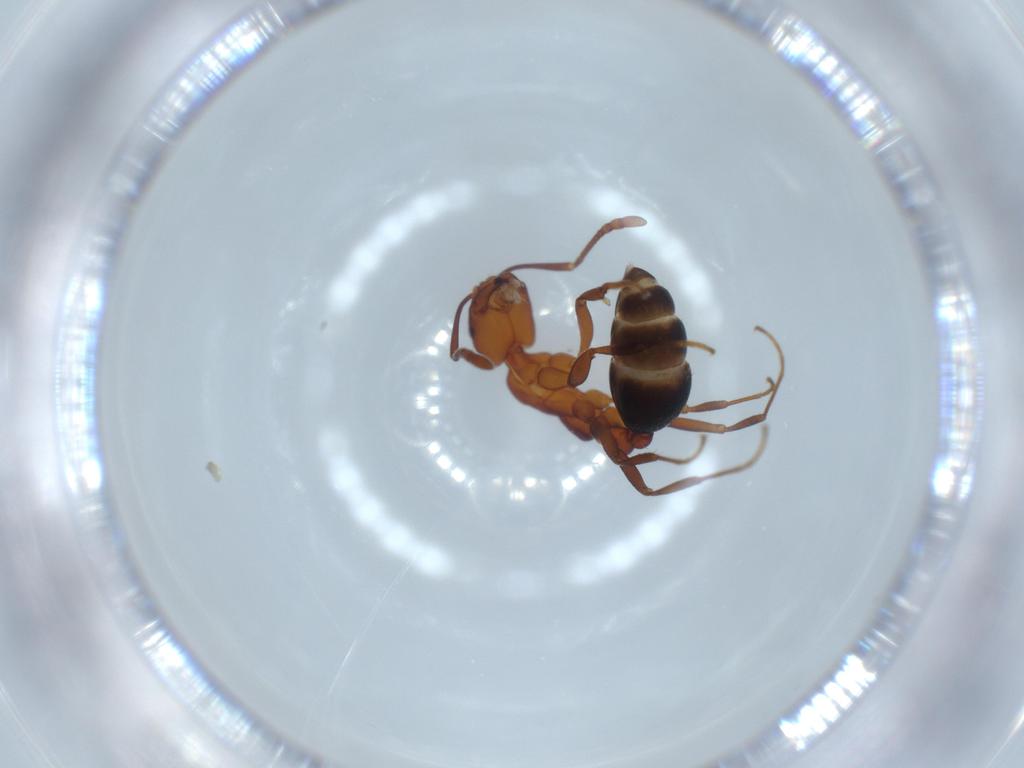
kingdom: Animalia
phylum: Arthropoda
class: Insecta
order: Hymenoptera
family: Formicidae
